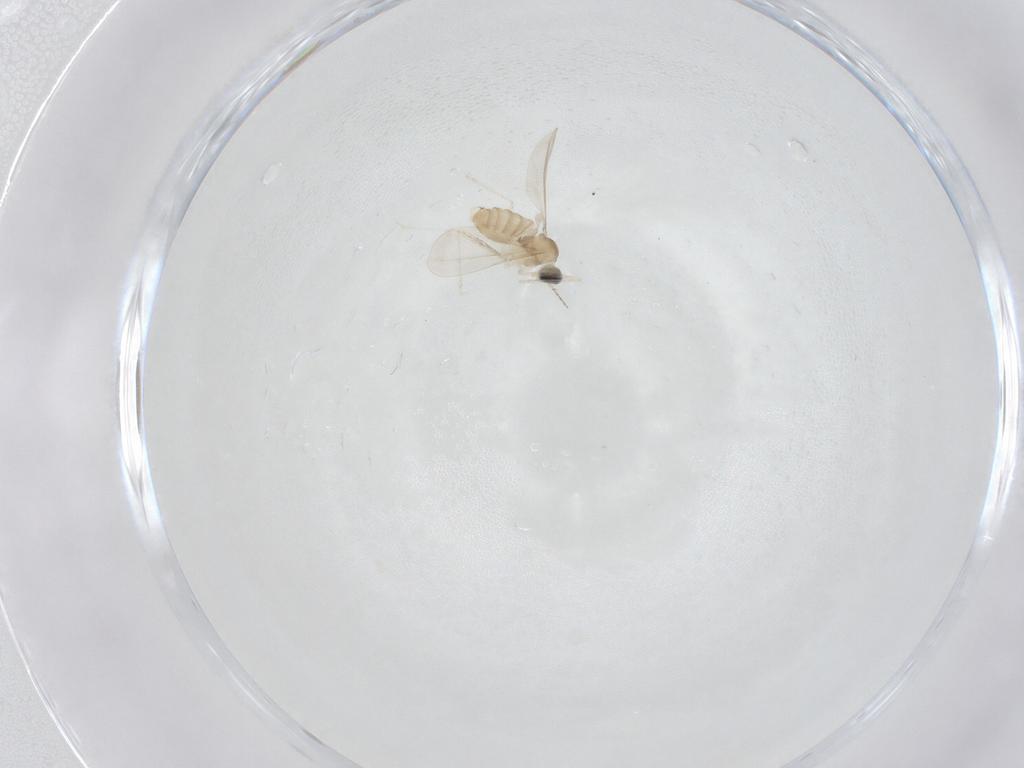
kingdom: Animalia
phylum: Arthropoda
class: Insecta
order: Diptera
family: Cecidomyiidae
